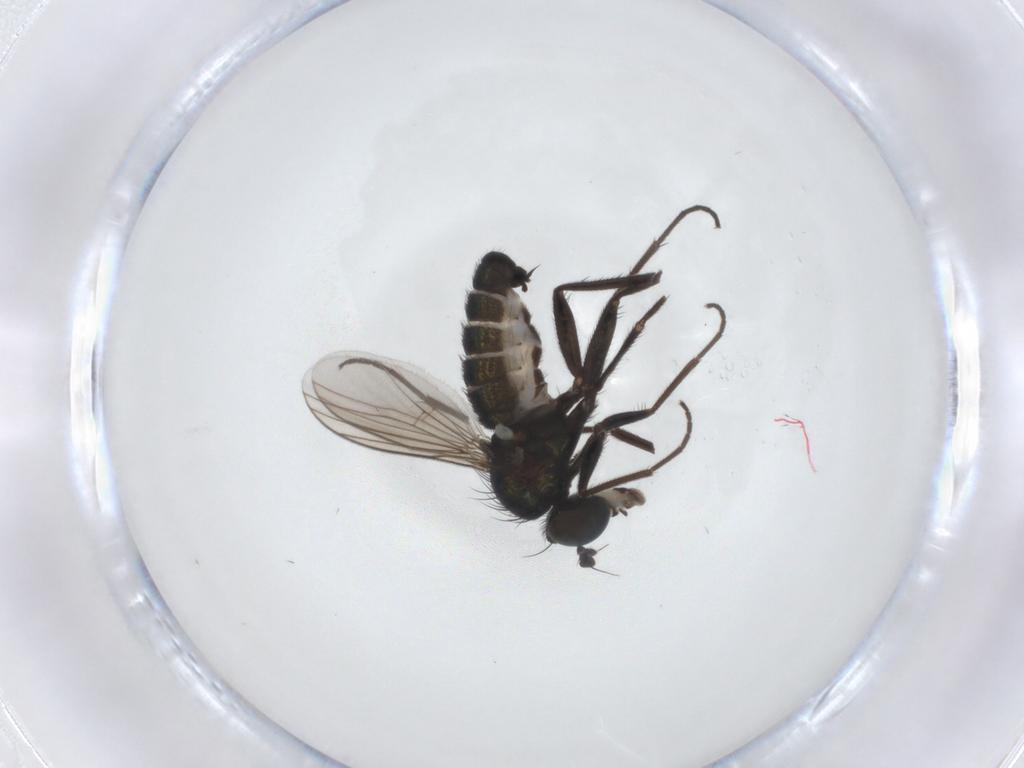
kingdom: Animalia
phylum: Arthropoda
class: Insecta
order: Diptera
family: Dolichopodidae
